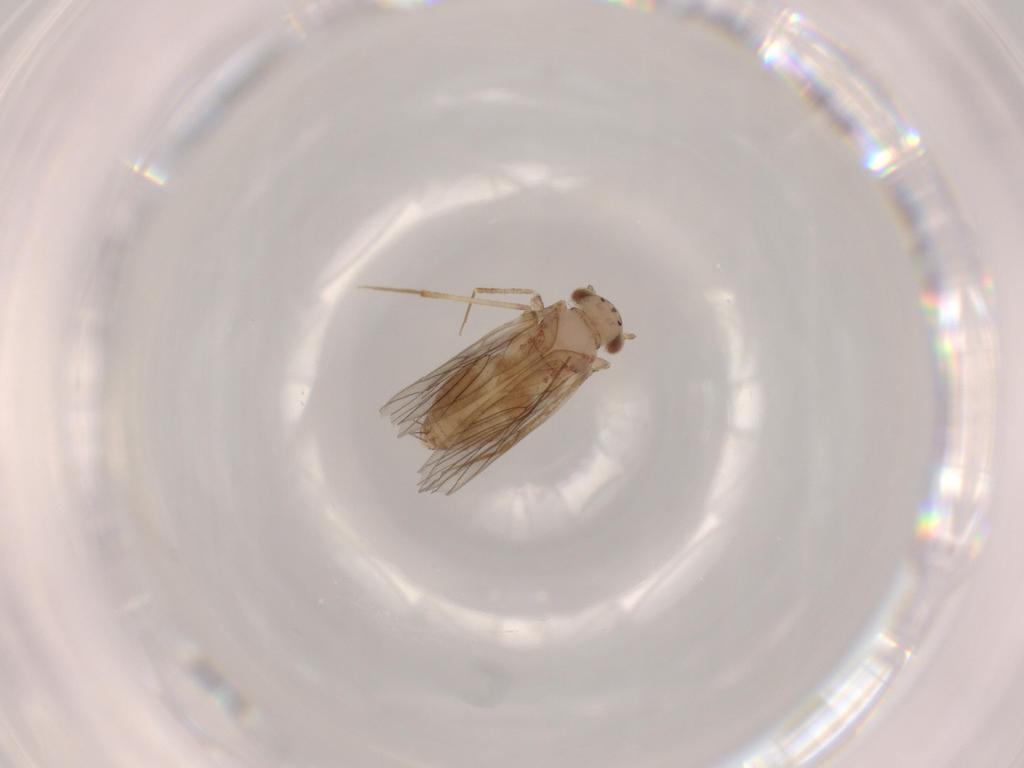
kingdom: Animalia
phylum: Arthropoda
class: Insecta
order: Psocodea
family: Lepidopsocidae
